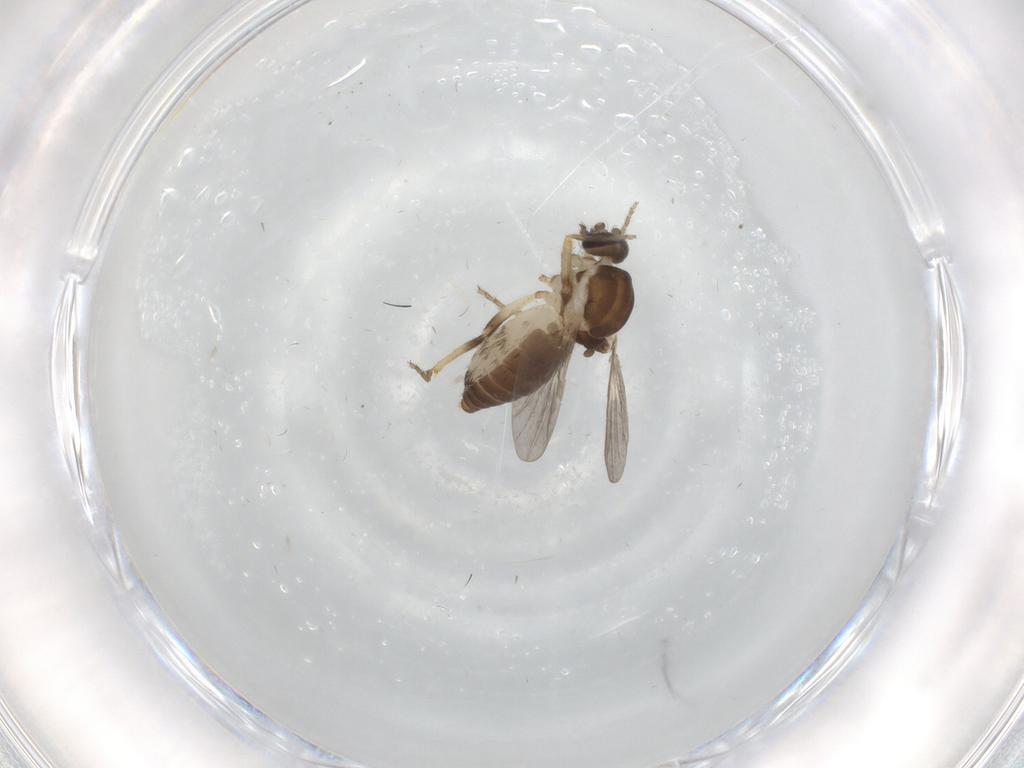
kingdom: Animalia
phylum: Arthropoda
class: Insecta
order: Diptera
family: Ceratopogonidae
